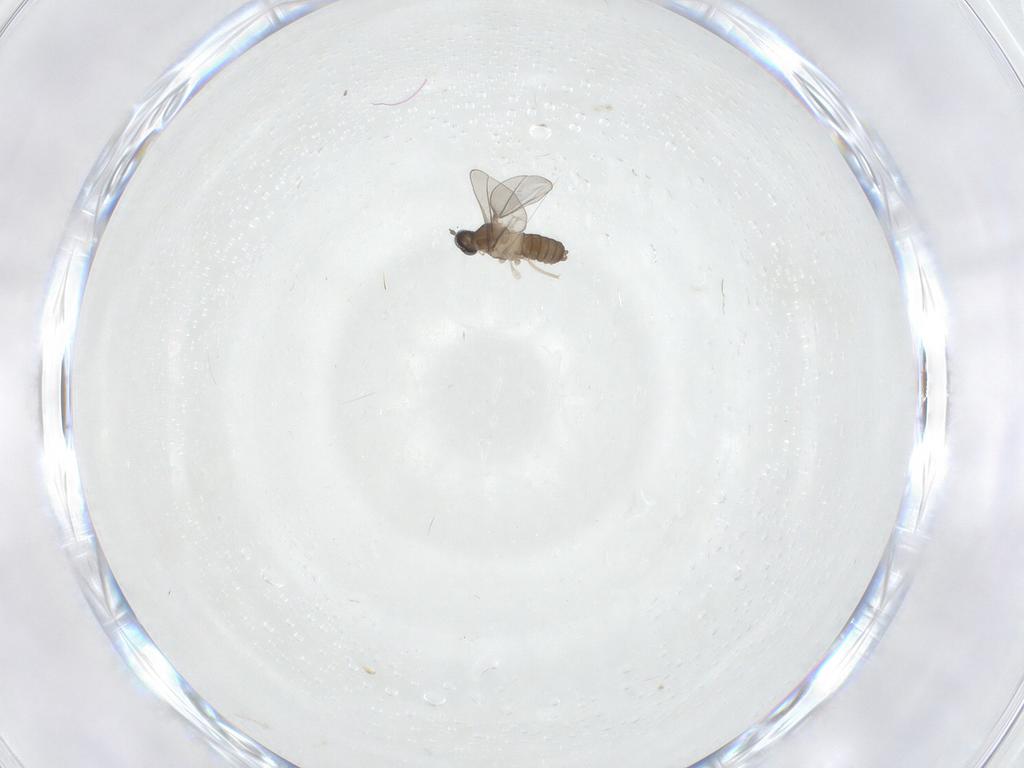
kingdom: Animalia
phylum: Arthropoda
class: Insecta
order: Diptera
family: Cecidomyiidae
